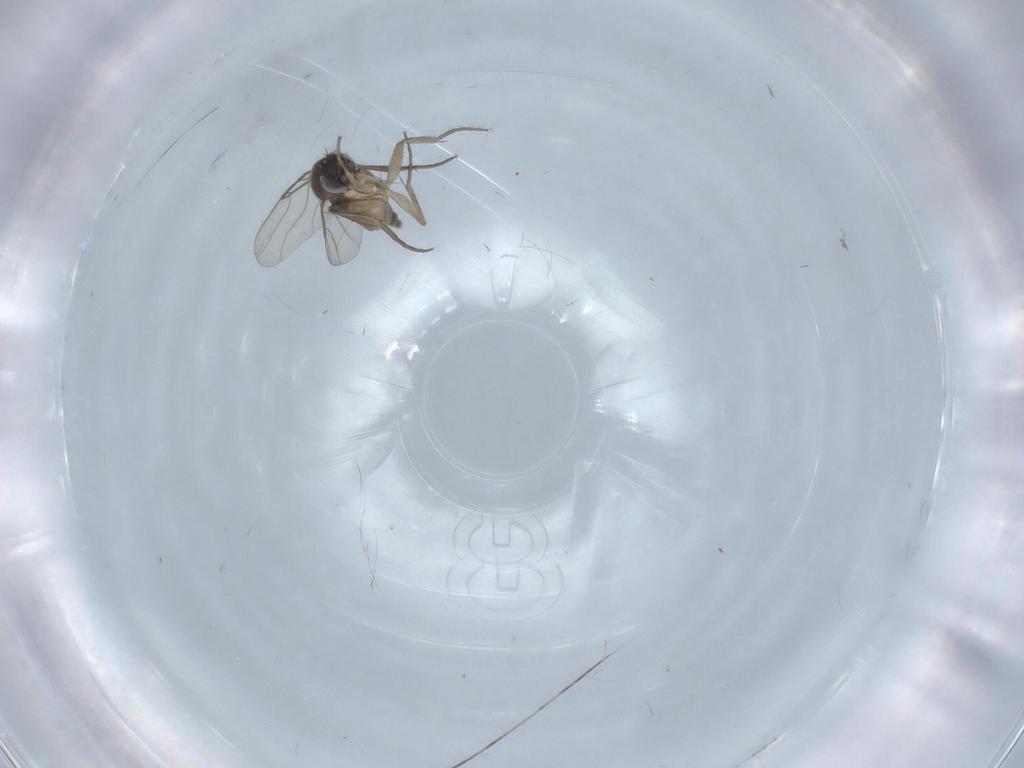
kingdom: Animalia
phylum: Arthropoda
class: Insecta
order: Diptera
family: Phoridae
